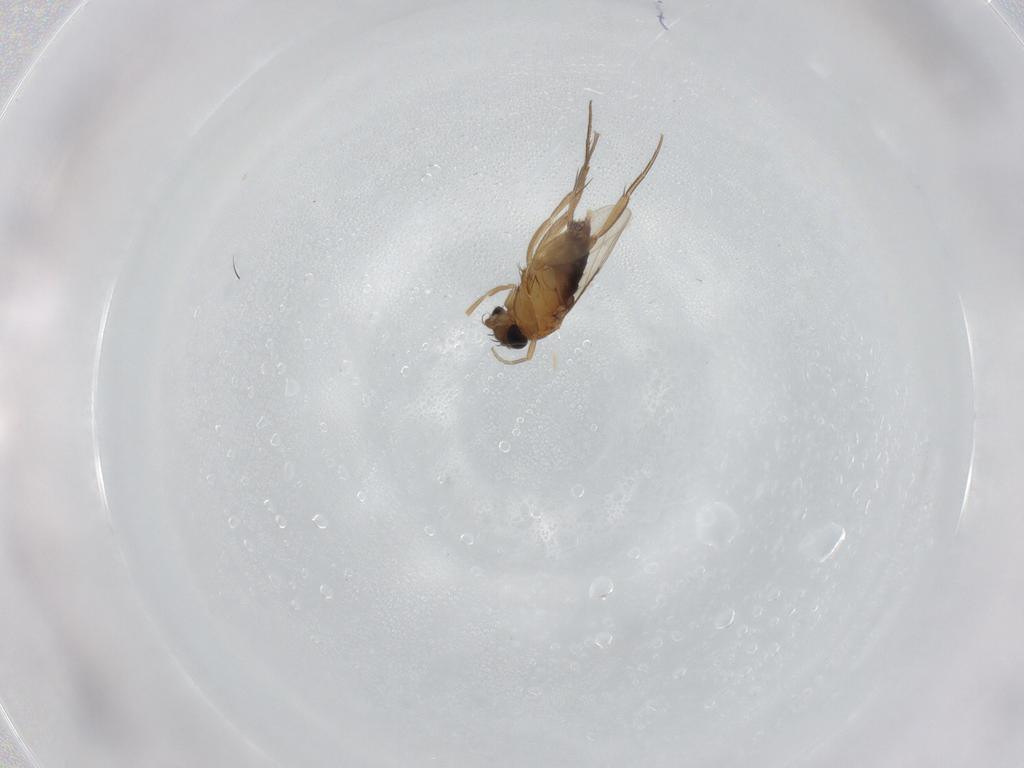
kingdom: Animalia
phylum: Arthropoda
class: Insecta
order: Diptera
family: Phoridae
